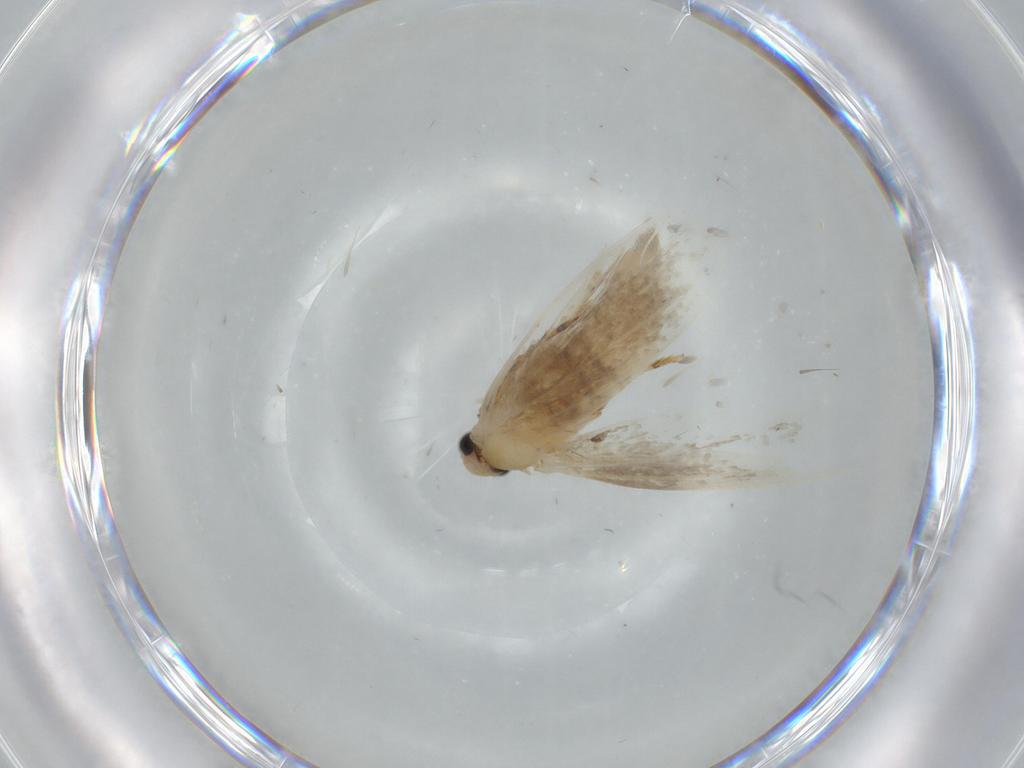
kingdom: Animalia
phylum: Arthropoda
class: Insecta
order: Lepidoptera
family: Tineidae
